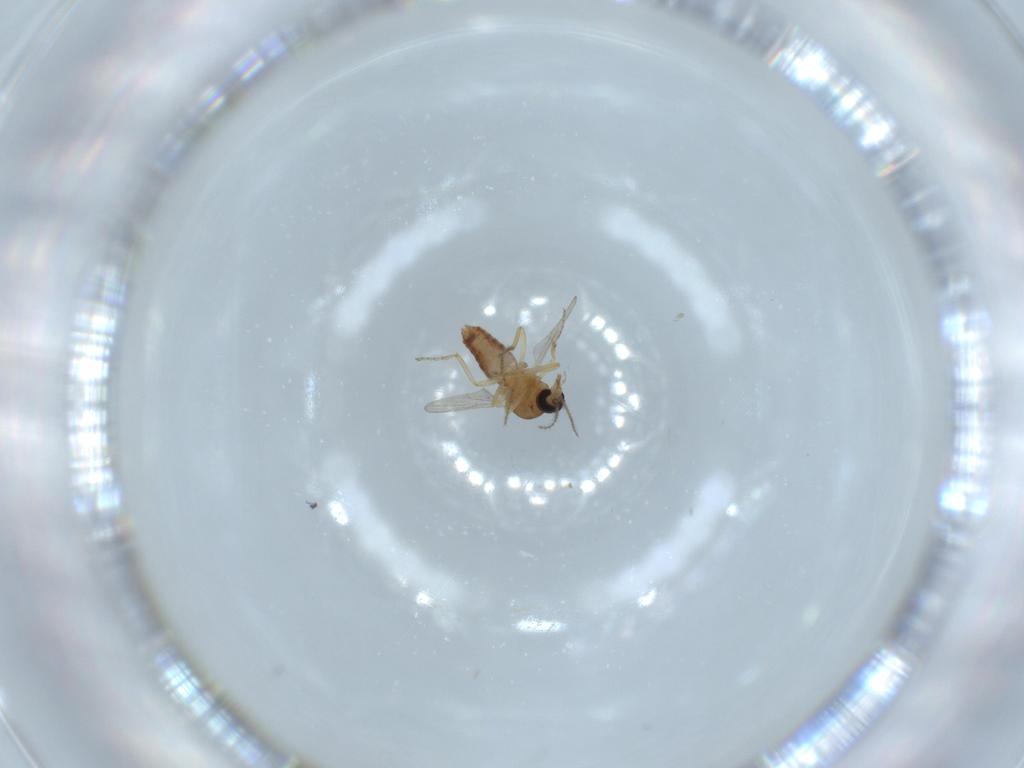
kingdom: Animalia
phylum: Arthropoda
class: Insecta
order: Diptera
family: Ceratopogonidae
